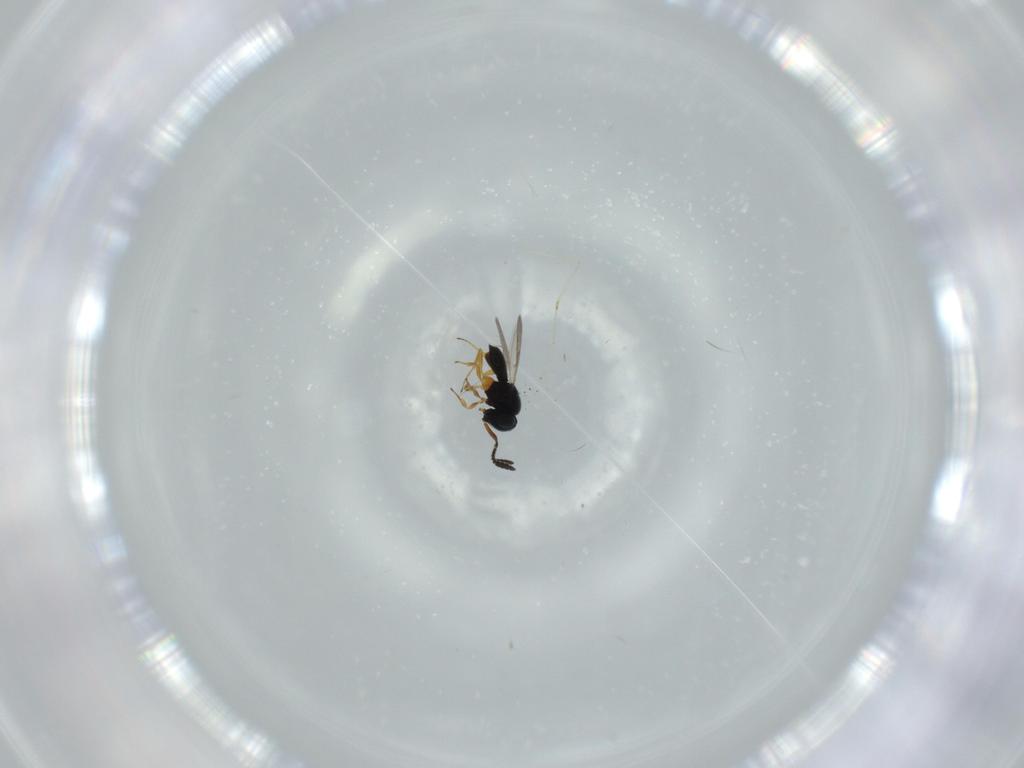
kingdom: Animalia
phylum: Arthropoda
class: Insecta
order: Hymenoptera
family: Scelionidae
